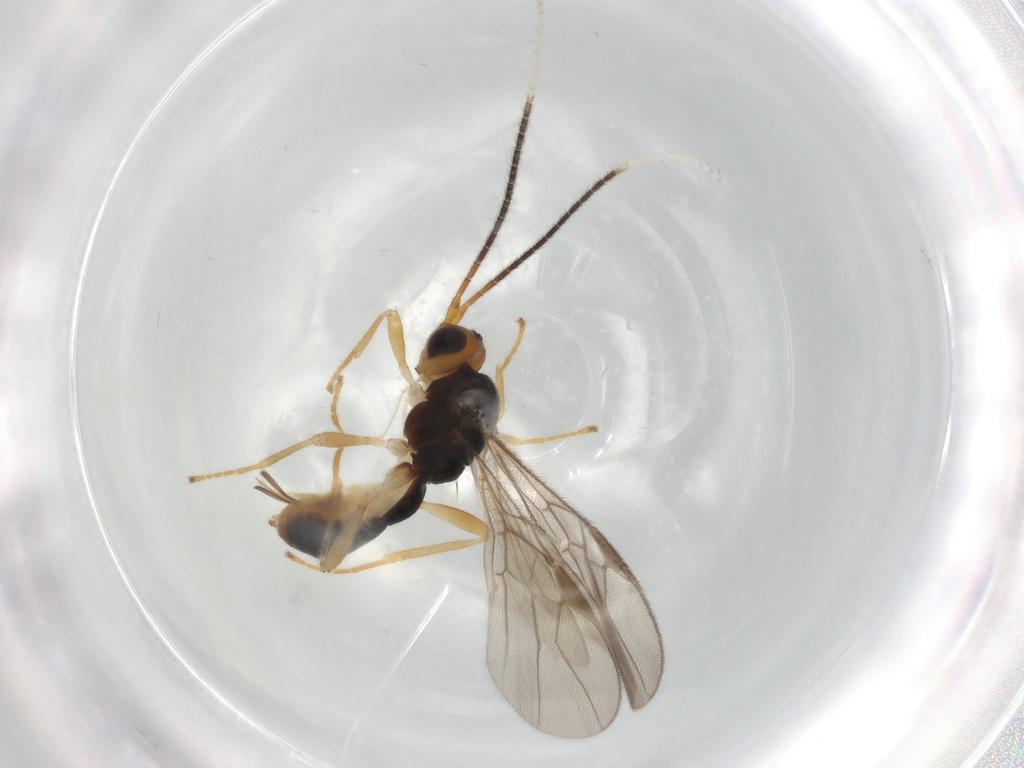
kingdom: Animalia
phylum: Arthropoda
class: Insecta
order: Hymenoptera
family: Braconidae
